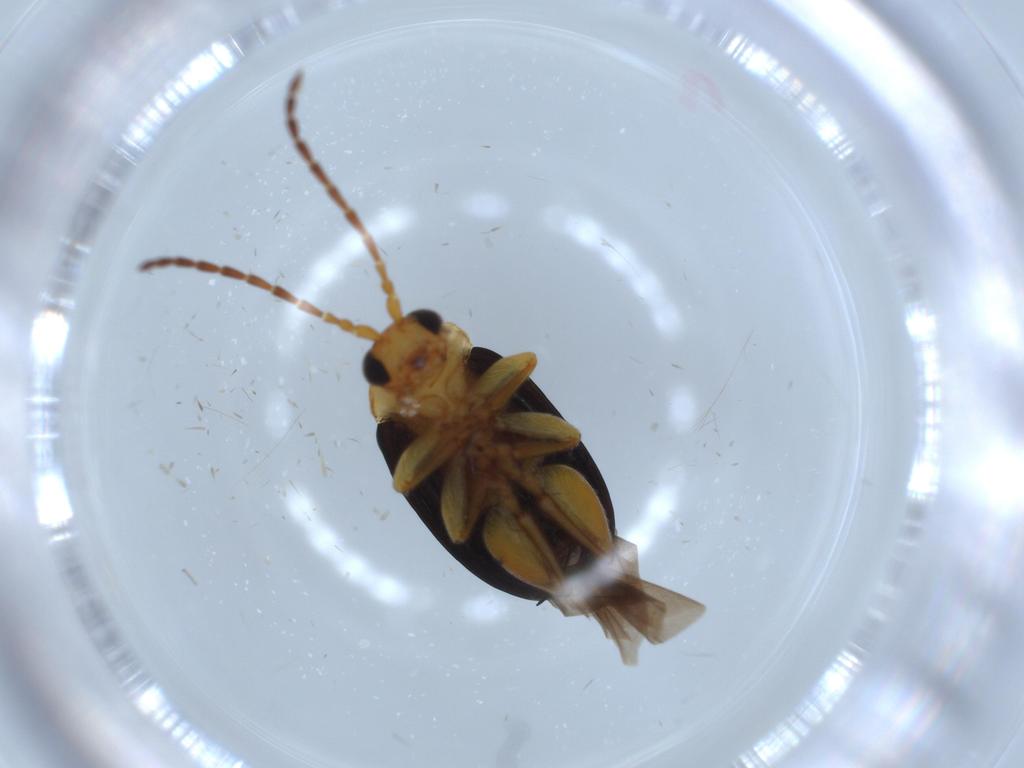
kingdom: Animalia
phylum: Arthropoda
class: Insecta
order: Coleoptera
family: Chrysomelidae
